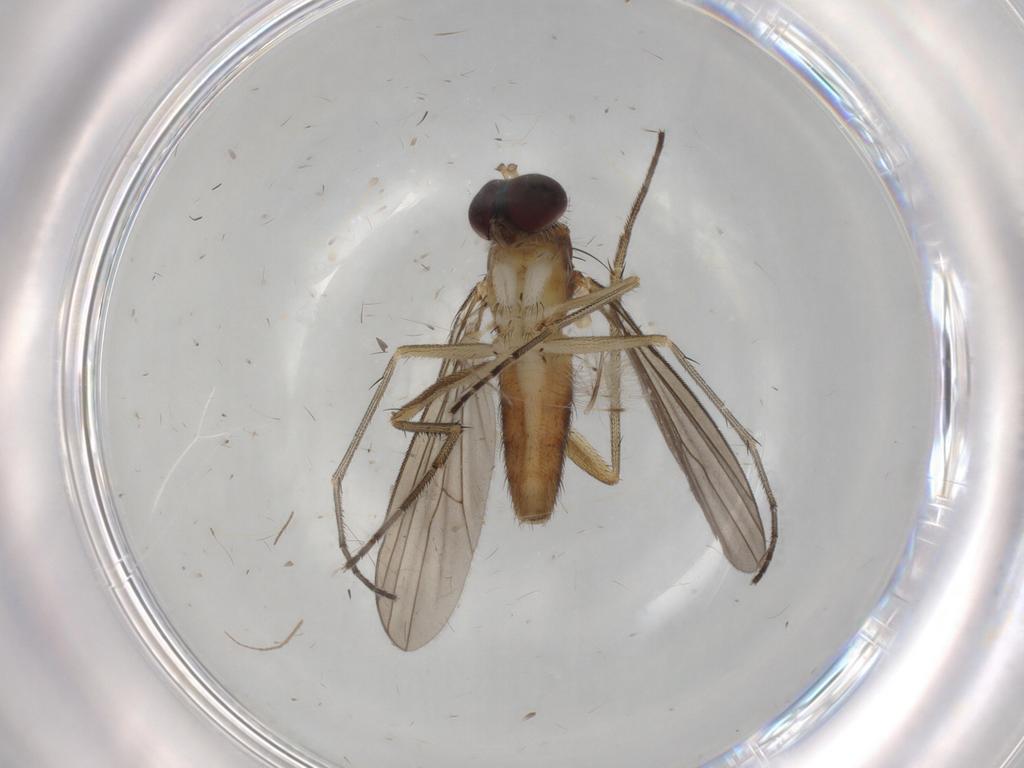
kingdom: Animalia
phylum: Arthropoda
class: Insecta
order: Diptera
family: Dolichopodidae
